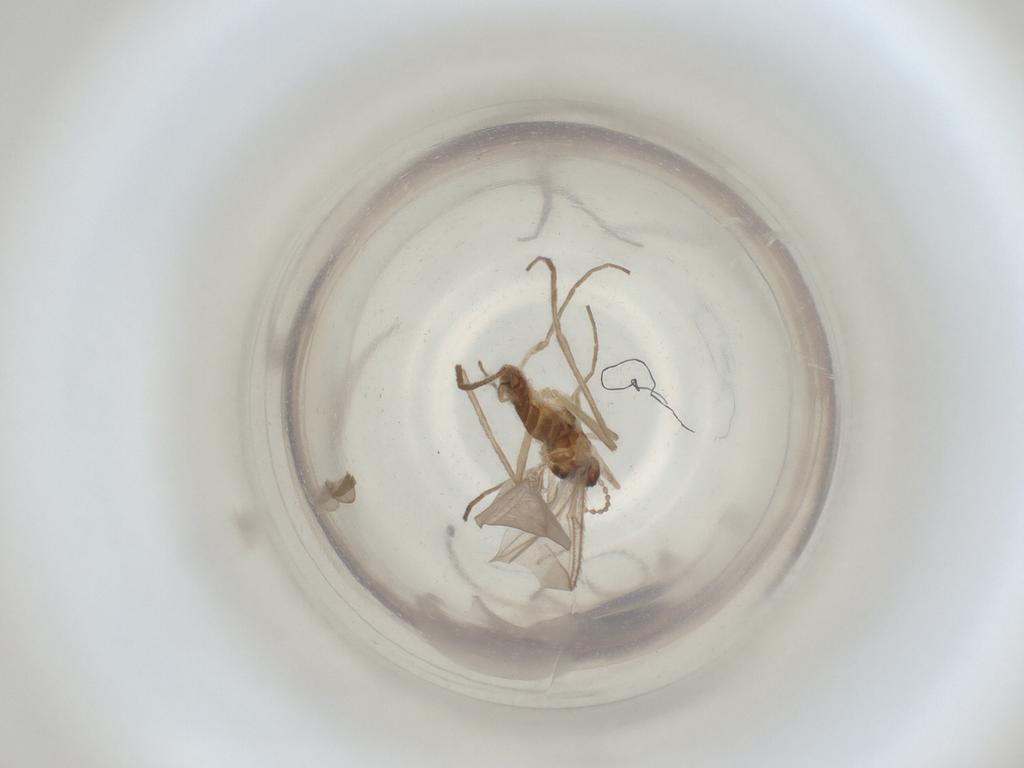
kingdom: Animalia
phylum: Arthropoda
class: Insecta
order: Diptera
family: Cecidomyiidae
